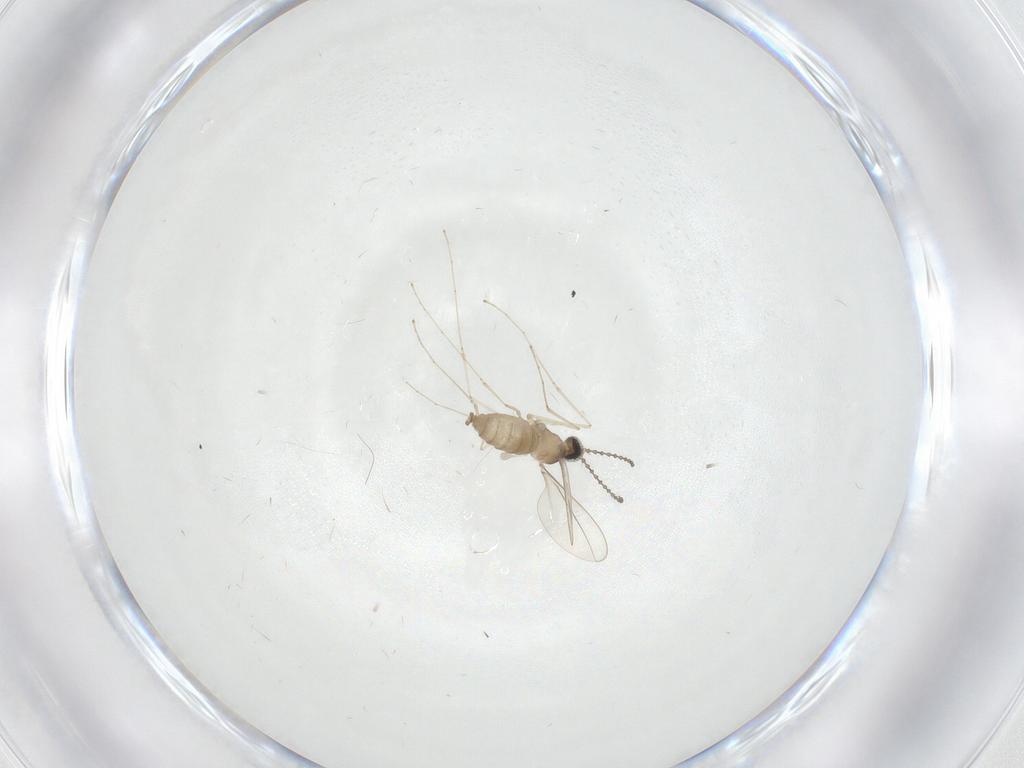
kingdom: Animalia
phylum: Arthropoda
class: Insecta
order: Diptera
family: Cecidomyiidae
